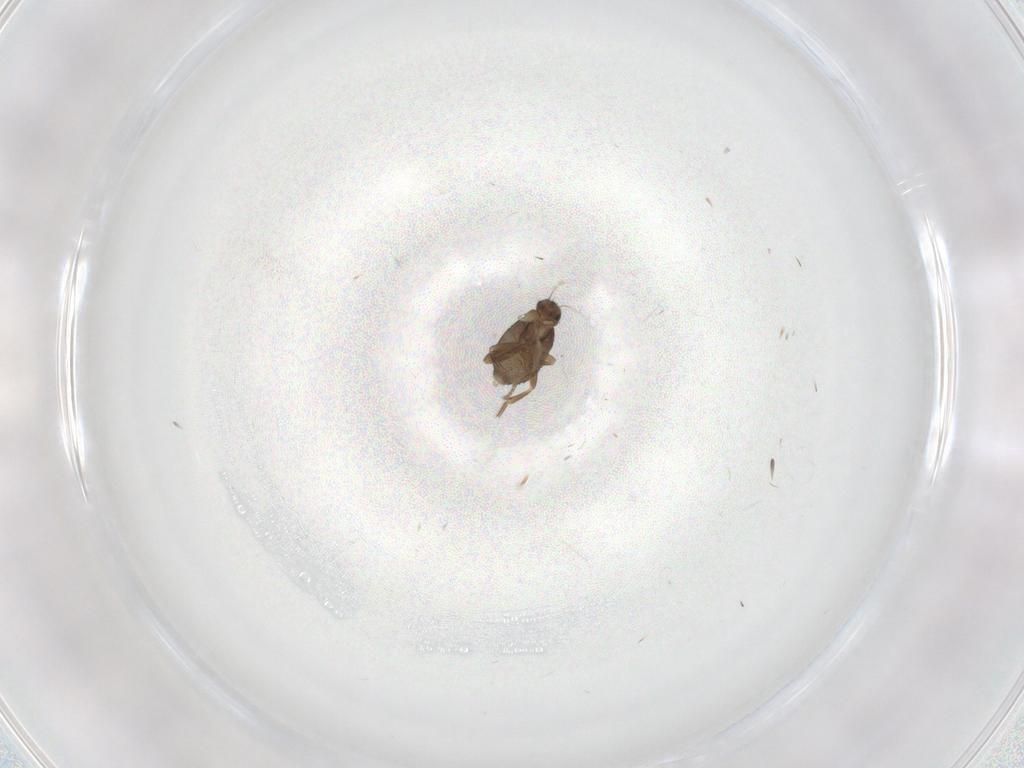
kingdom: Animalia
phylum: Arthropoda
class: Insecta
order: Diptera
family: Phoridae
